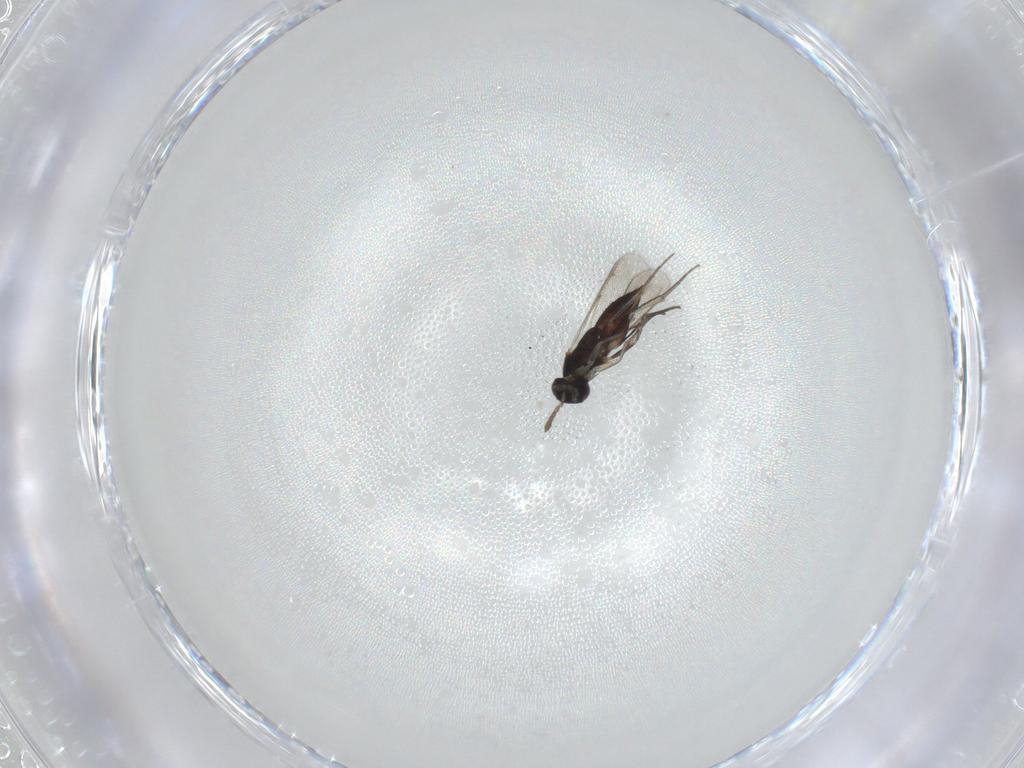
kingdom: Animalia
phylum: Arthropoda
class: Insecta
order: Hymenoptera
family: Eulophidae
